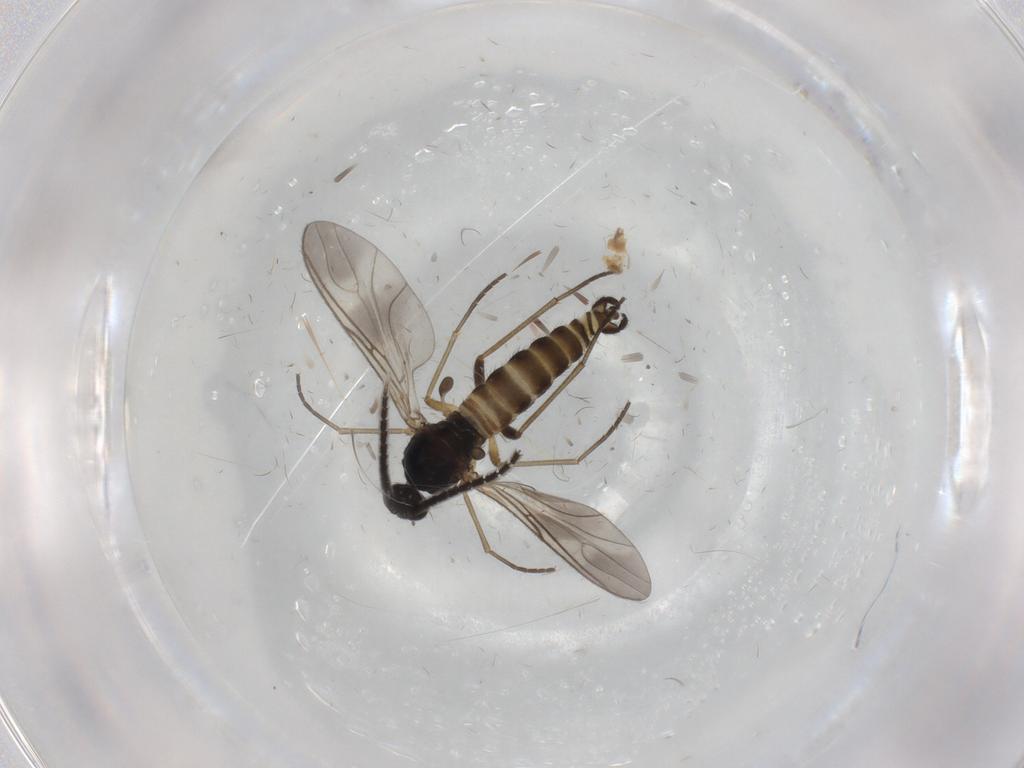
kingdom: Animalia
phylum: Arthropoda
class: Insecta
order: Diptera
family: Sciaridae
